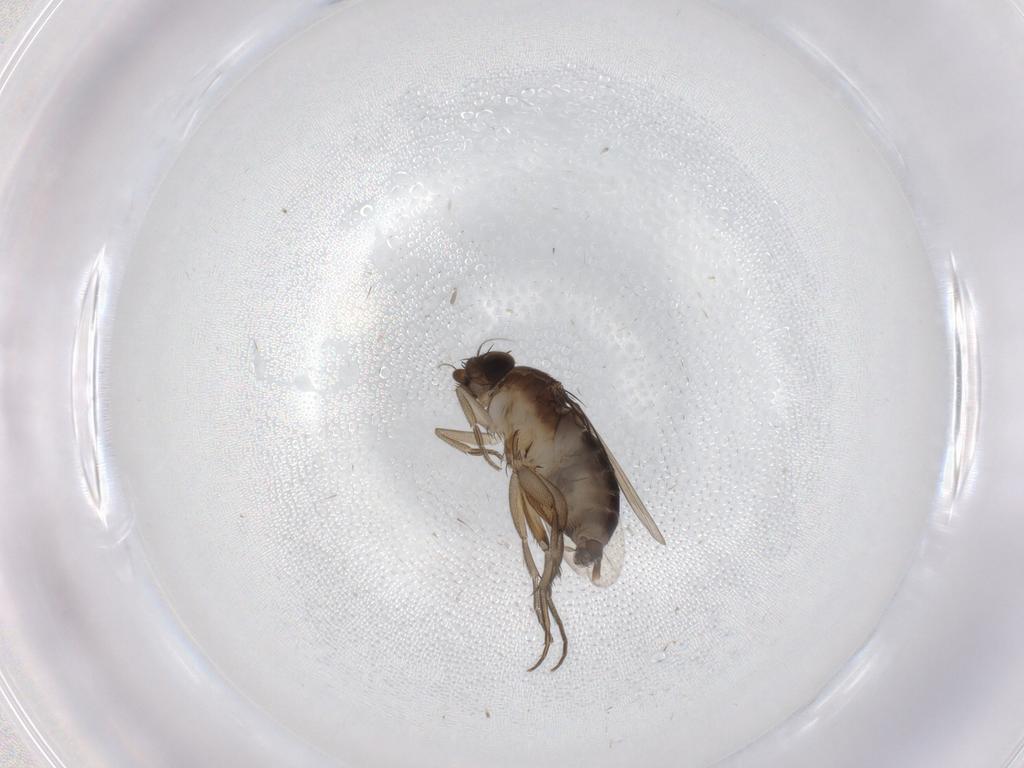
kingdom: Animalia
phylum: Arthropoda
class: Insecta
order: Diptera
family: Phoridae
